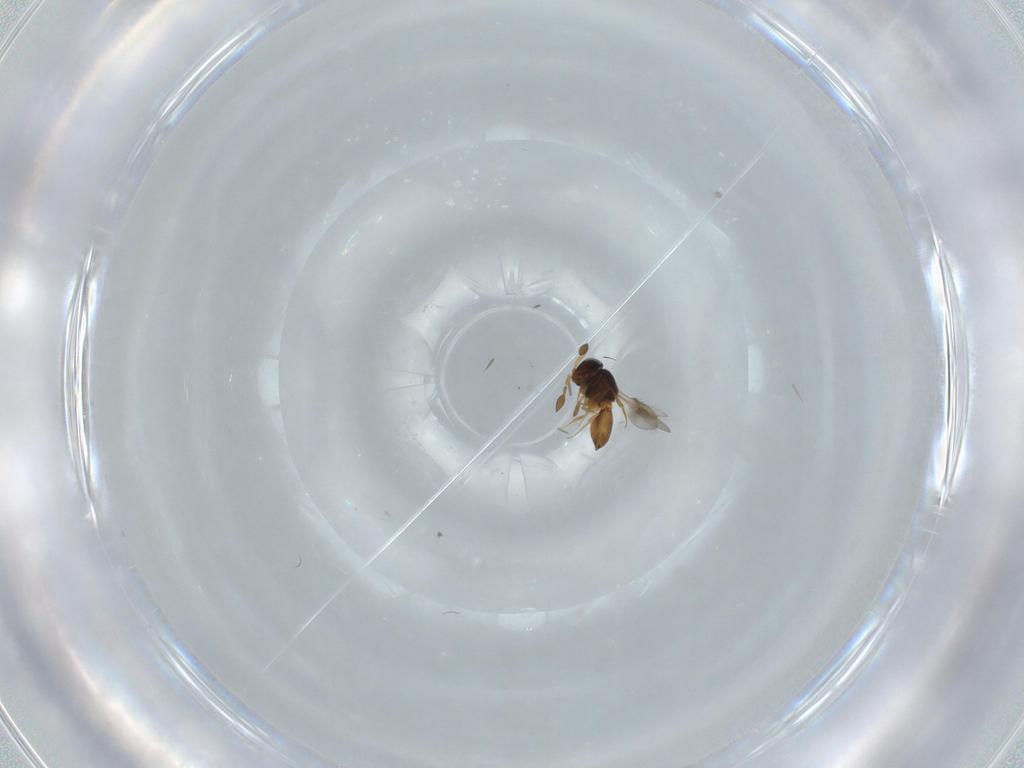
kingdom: Animalia
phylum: Arthropoda
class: Insecta
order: Hymenoptera
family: Scelionidae
